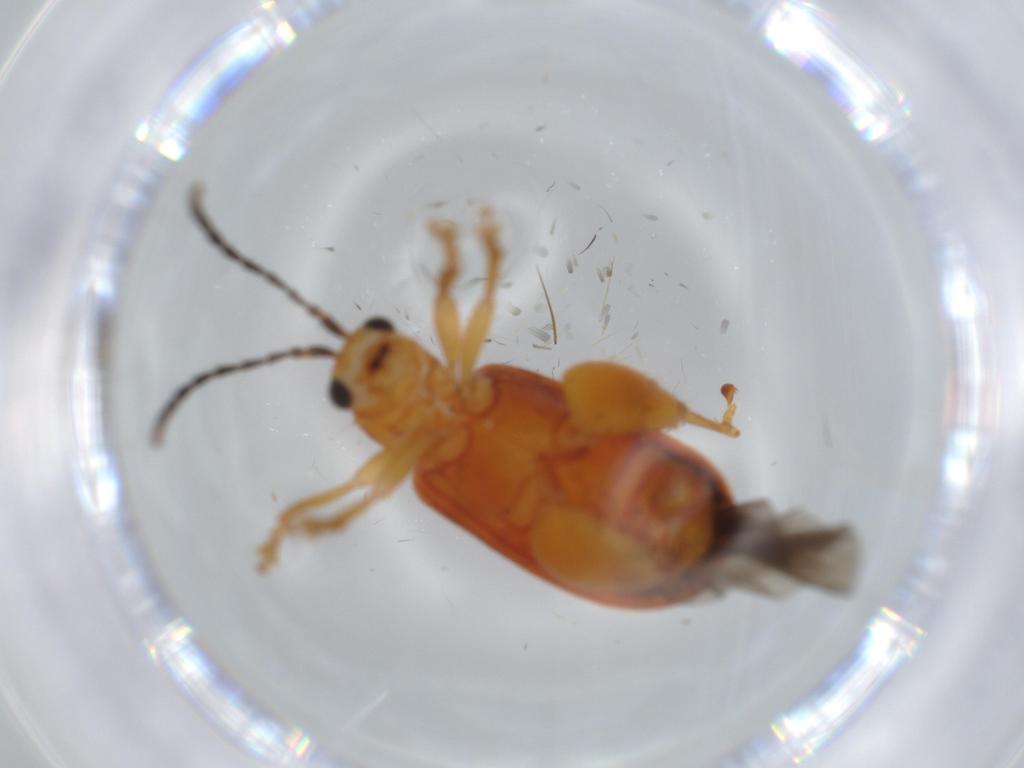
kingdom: Animalia
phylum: Arthropoda
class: Insecta
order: Coleoptera
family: Chrysomelidae
